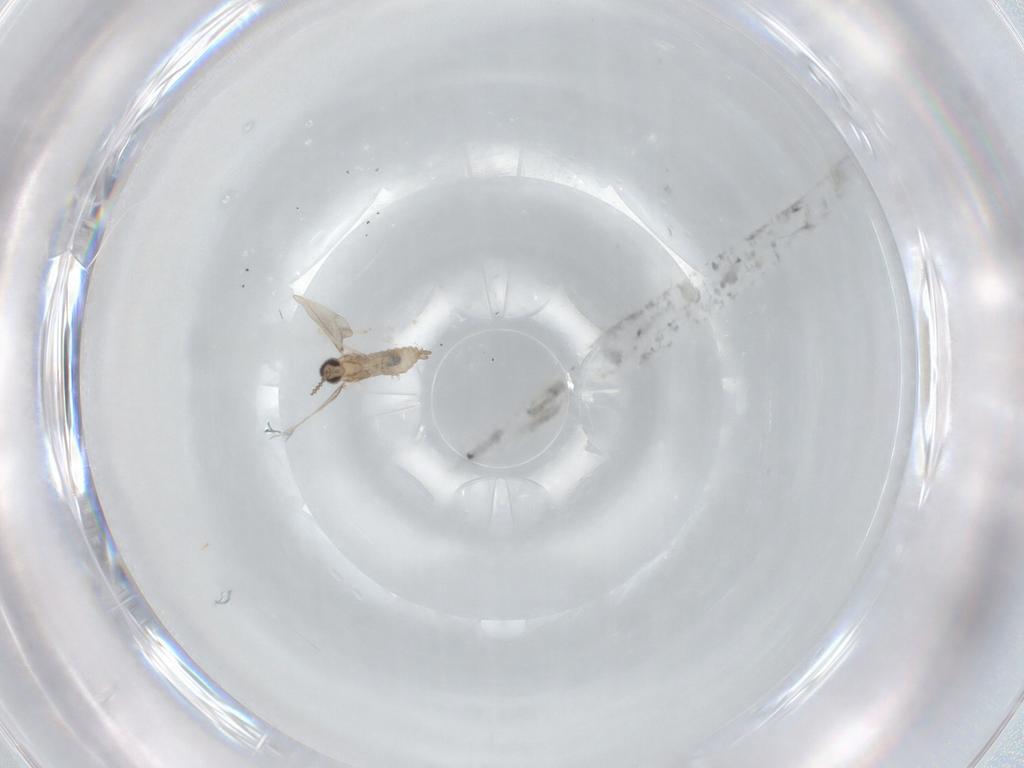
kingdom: Animalia
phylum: Arthropoda
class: Insecta
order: Diptera
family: Cecidomyiidae
